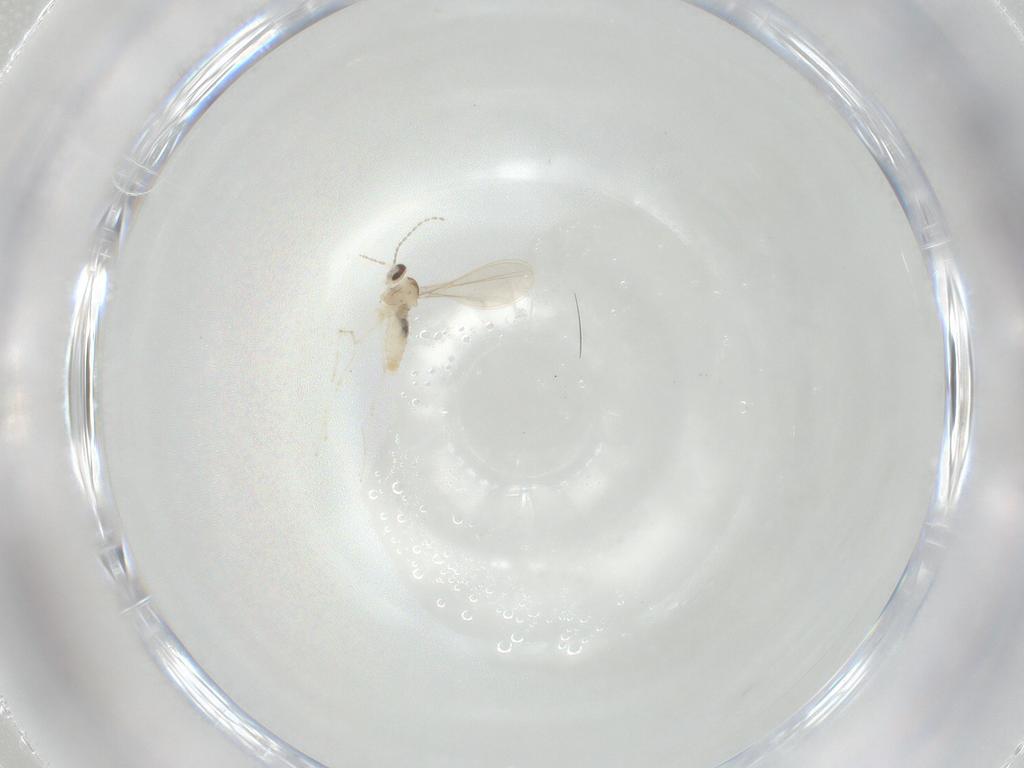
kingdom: Animalia
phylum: Arthropoda
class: Insecta
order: Diptera
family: Cecidomyiidae
